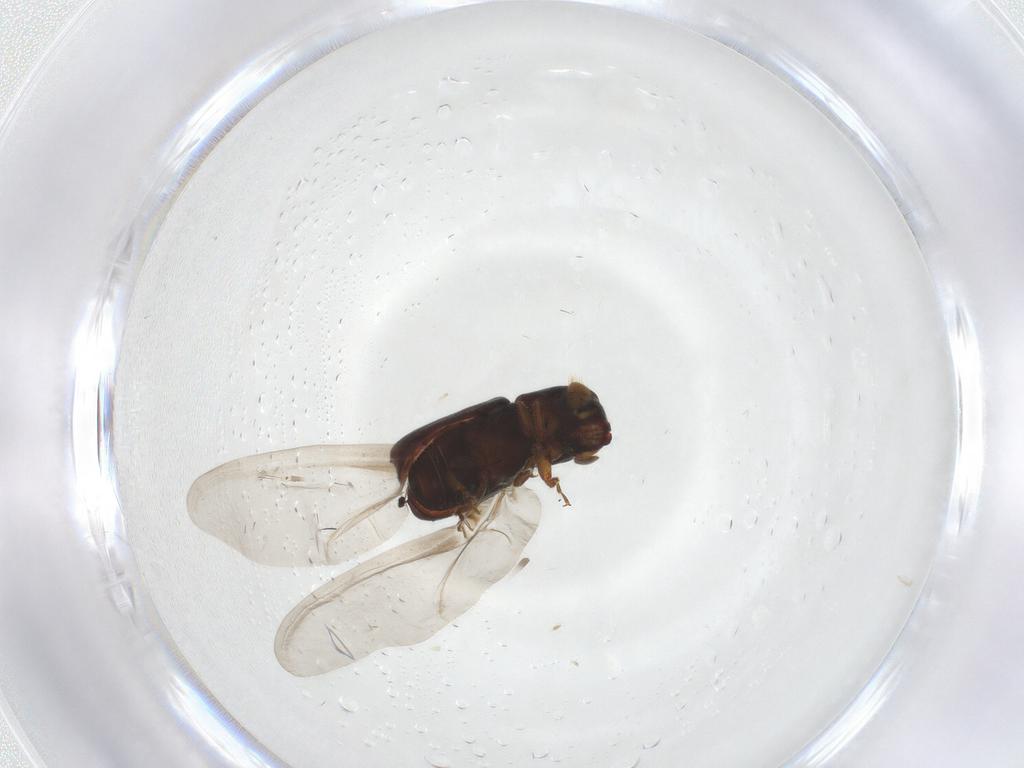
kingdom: Animalia
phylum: Arthropoda
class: Insecta
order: Coleoptera
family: Curculionidae
